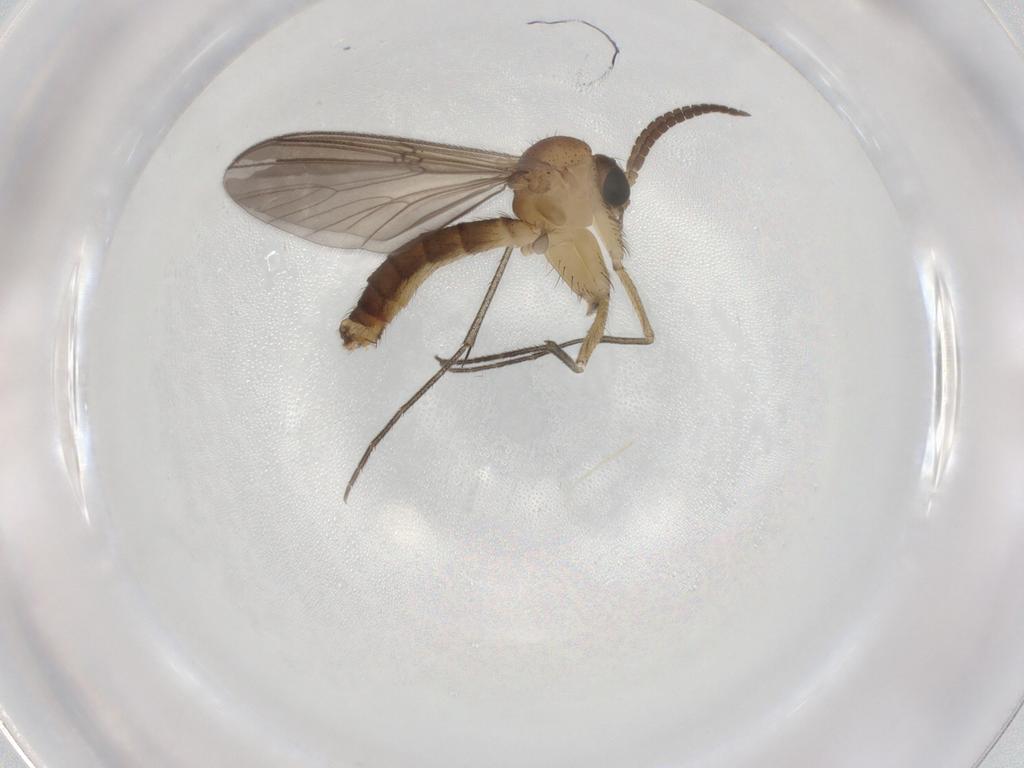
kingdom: Animalia
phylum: Arthropoda
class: Insecta
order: Diptera
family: Mycetophilidae
